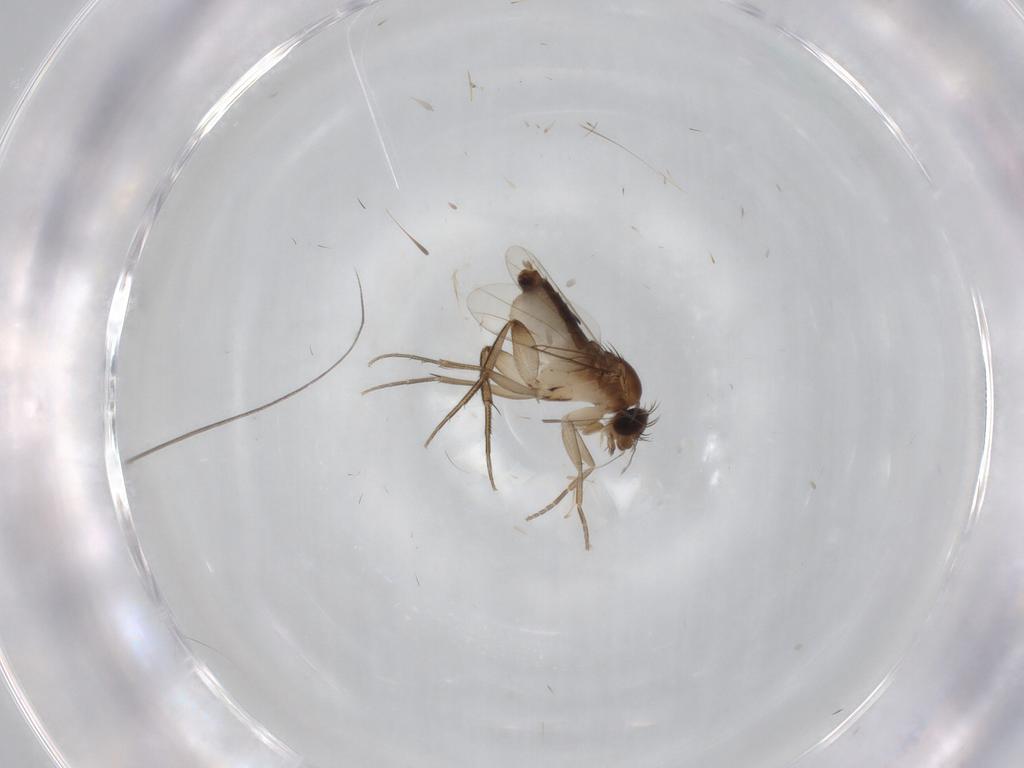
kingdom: Animalia
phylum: Arthropoda
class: Insecta
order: Diptera
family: Phoridae
